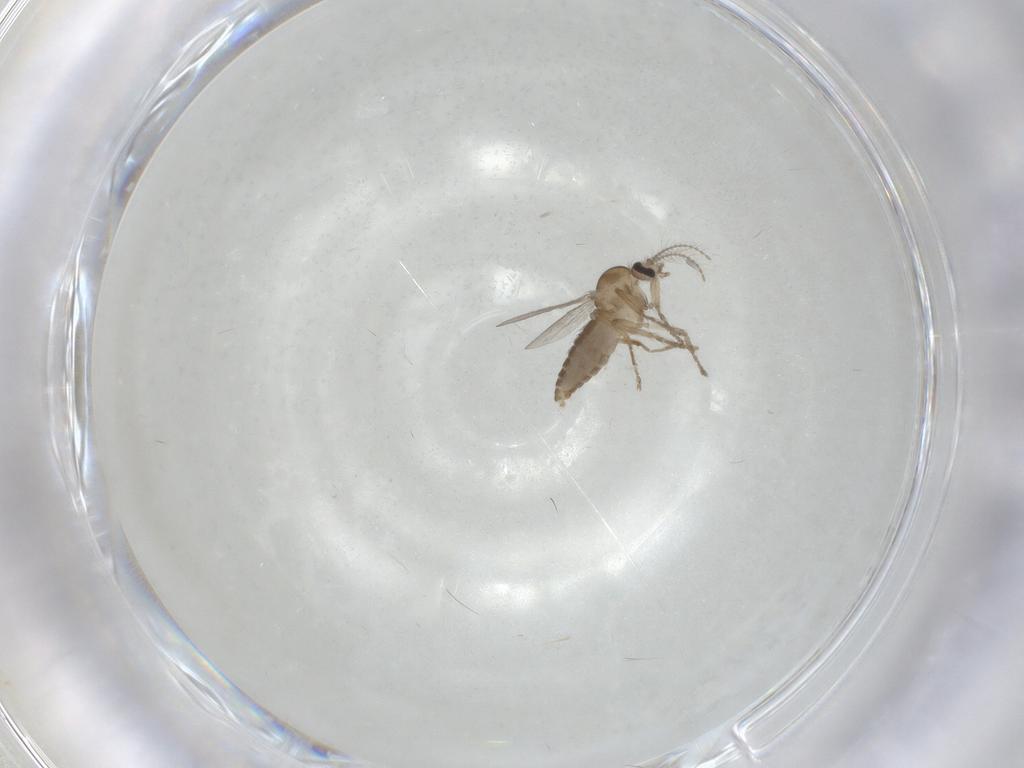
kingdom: Animalia
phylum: Arthropoda
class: Insecta
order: Diptera
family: Ceratopogonidae
